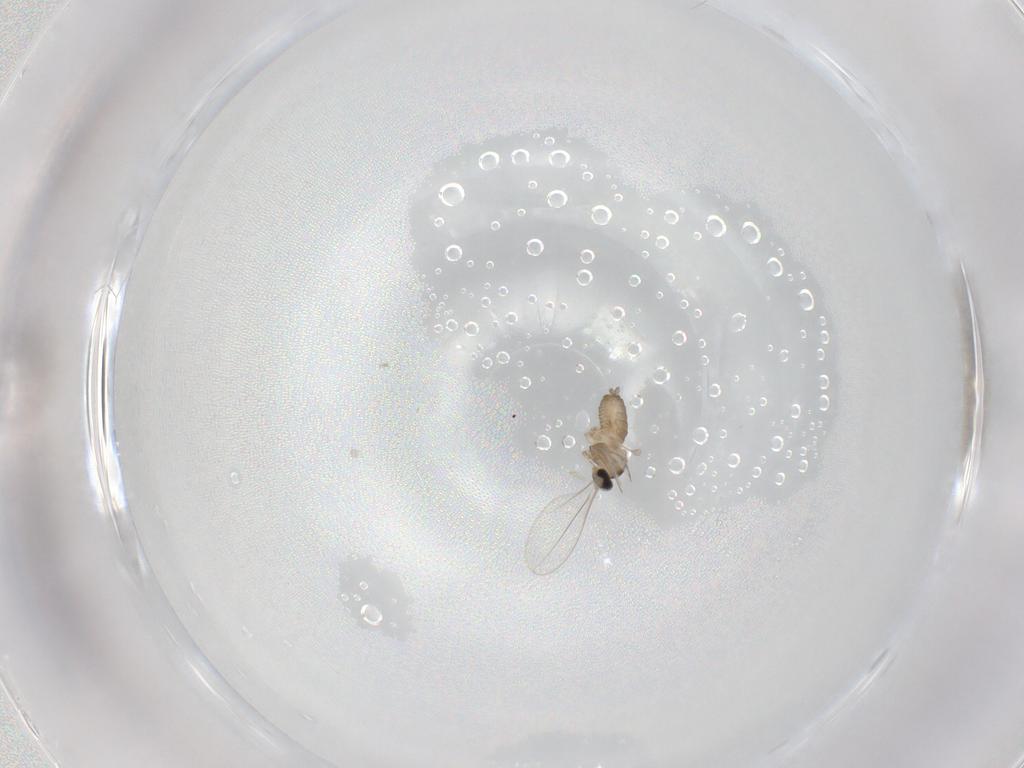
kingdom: Animalia
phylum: Arthropoda
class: Insecta
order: Diptera
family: Cecidomyiidae
